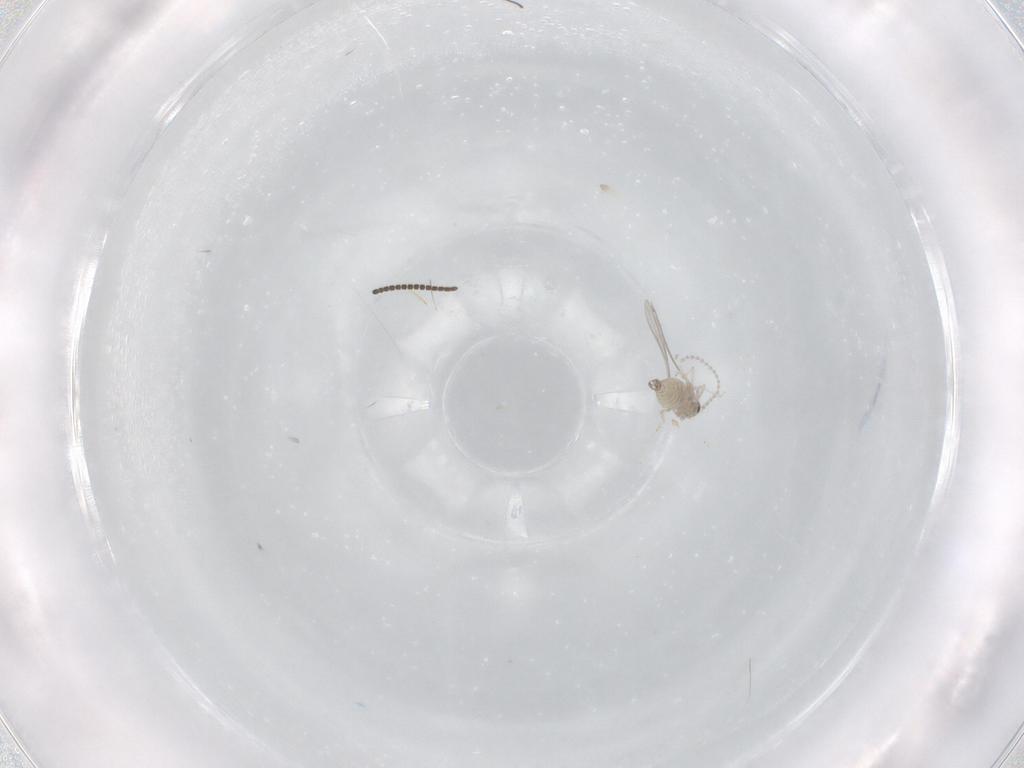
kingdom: Animalia
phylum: Arthropoda
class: Insecta
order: Diptera
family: Sciaridae
